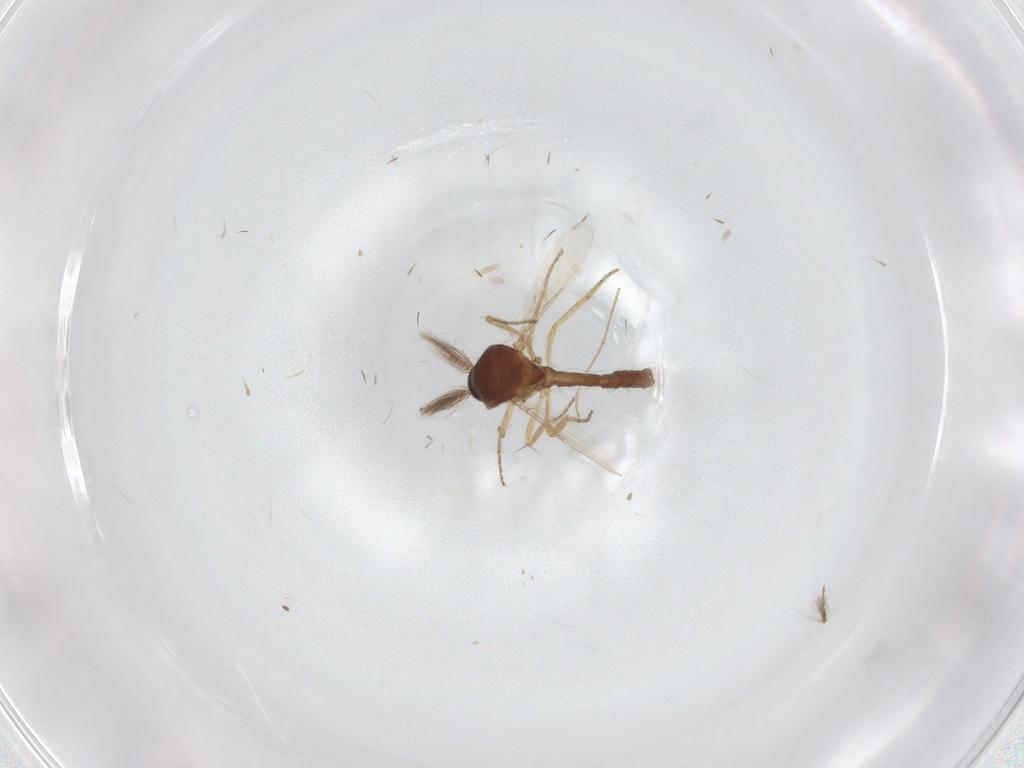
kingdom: Animalia
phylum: Arthropoda
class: Insecta
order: Diptera
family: Ceratopogonidae
